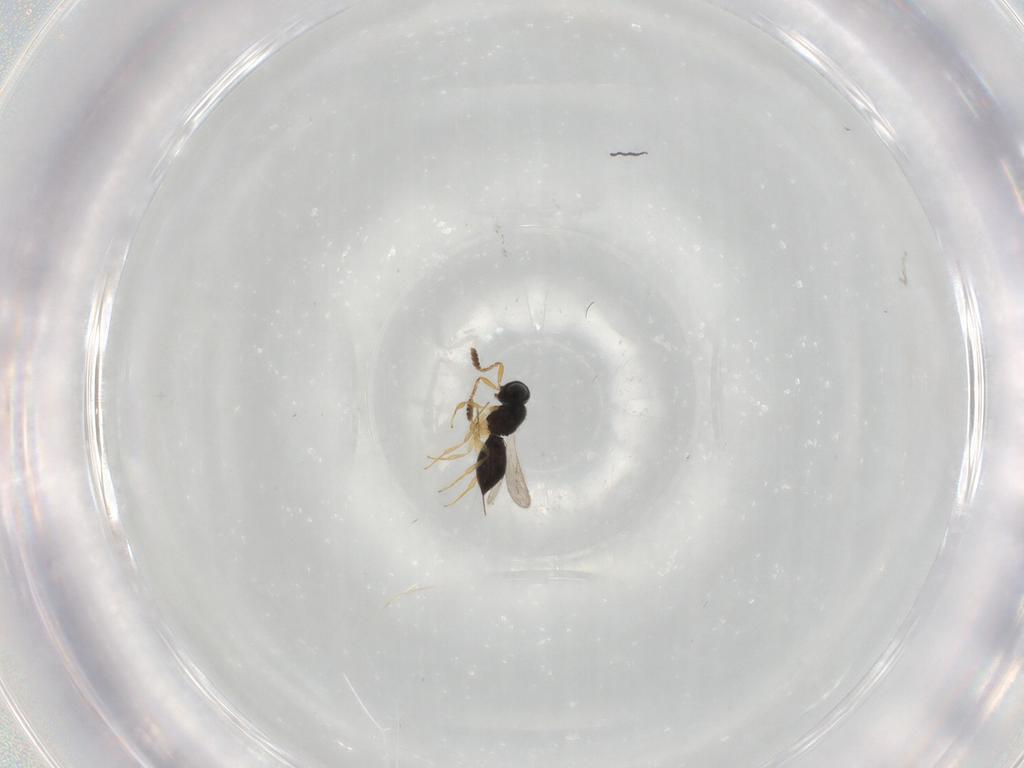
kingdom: Animalia
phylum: Arthropoda
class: Insecta
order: Hymenoptera
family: Scelionidae
